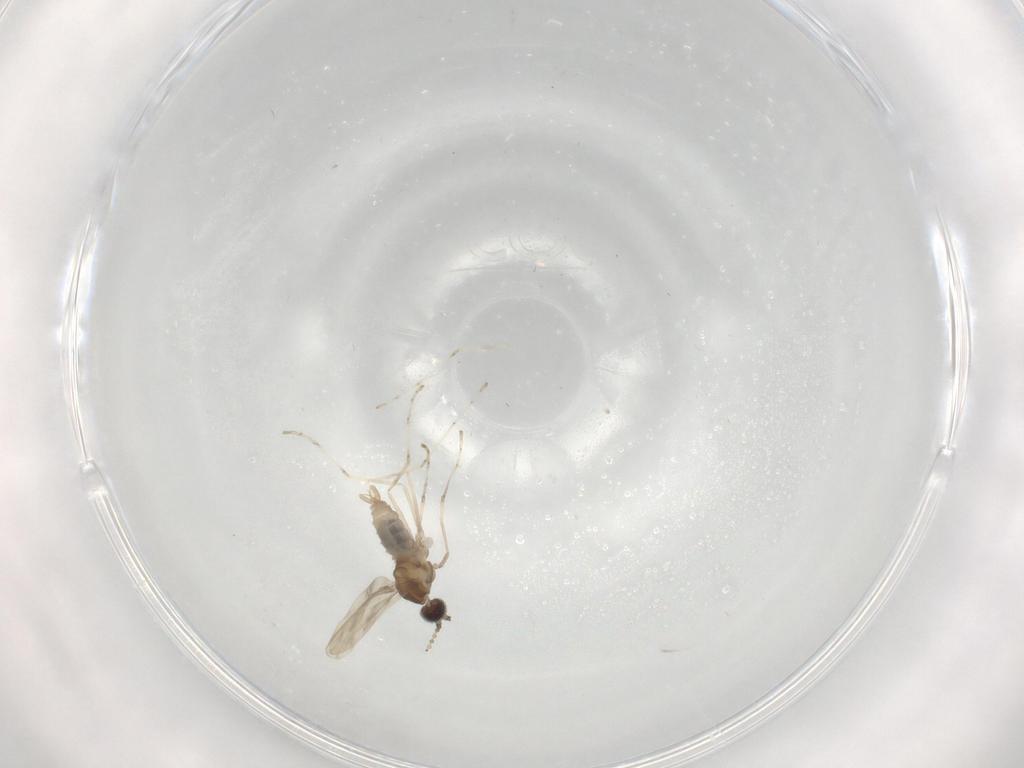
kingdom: Animalia
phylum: Arthropoda
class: Insecta
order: Diptera
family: Cecidomyiidae
